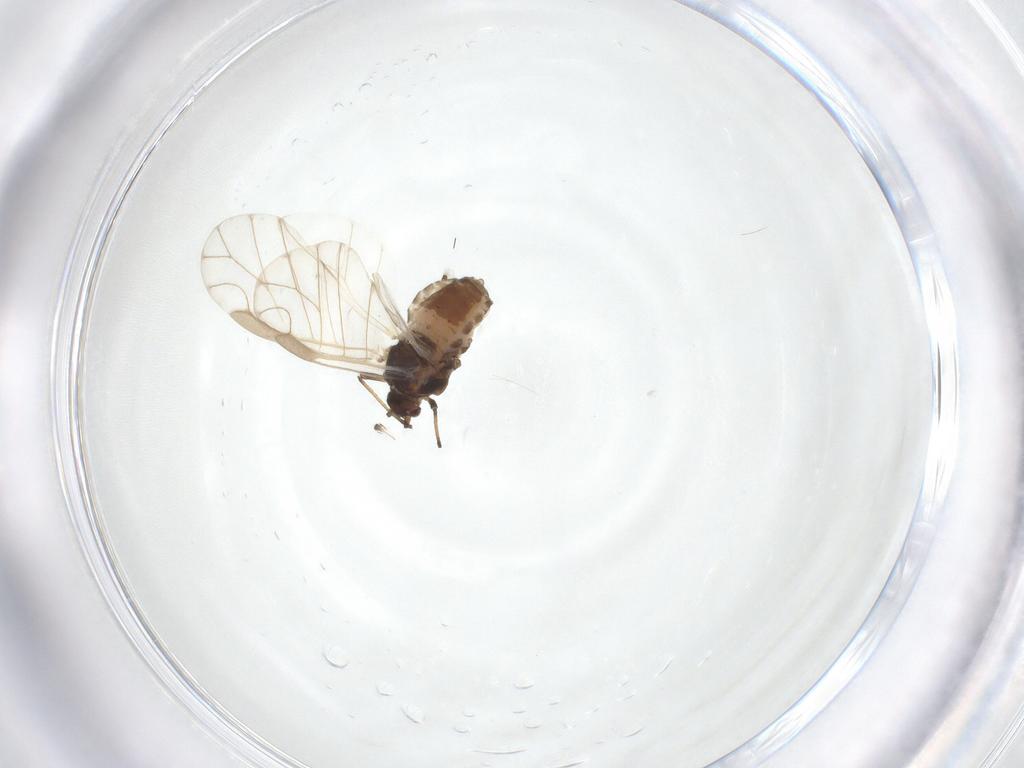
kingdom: Animalia
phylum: Arthropoda
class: Insecta
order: Hemiptera
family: Aphididae
